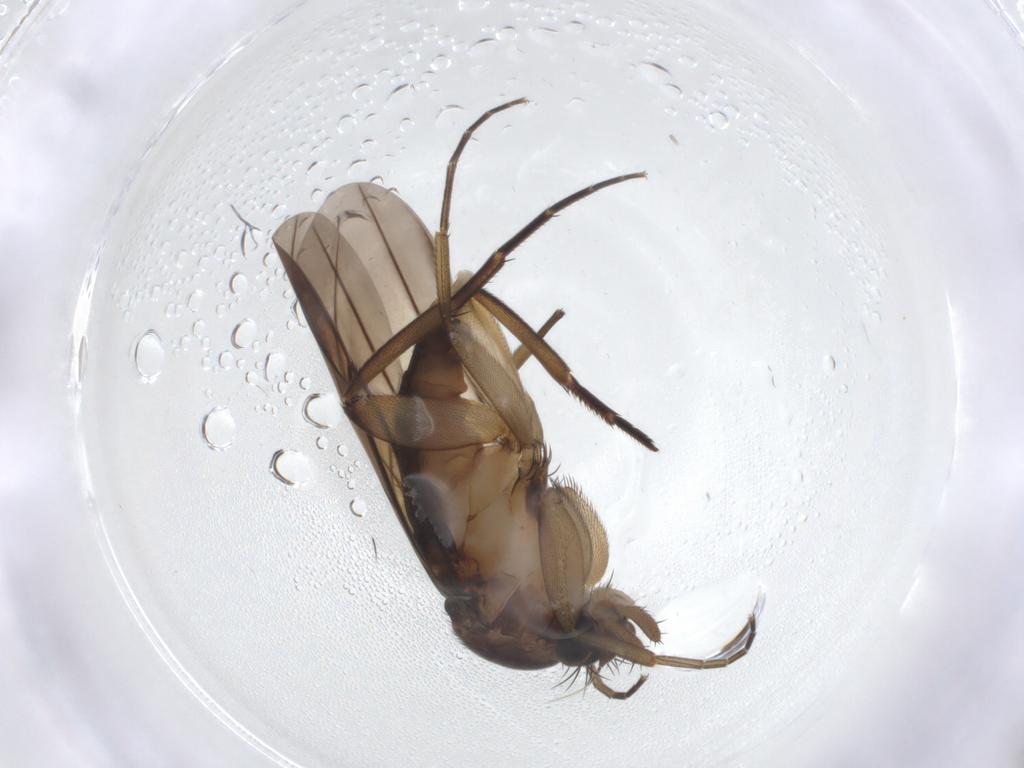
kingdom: Animalia
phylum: Arthropoda
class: Insecta
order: Diptera
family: Phoridae
